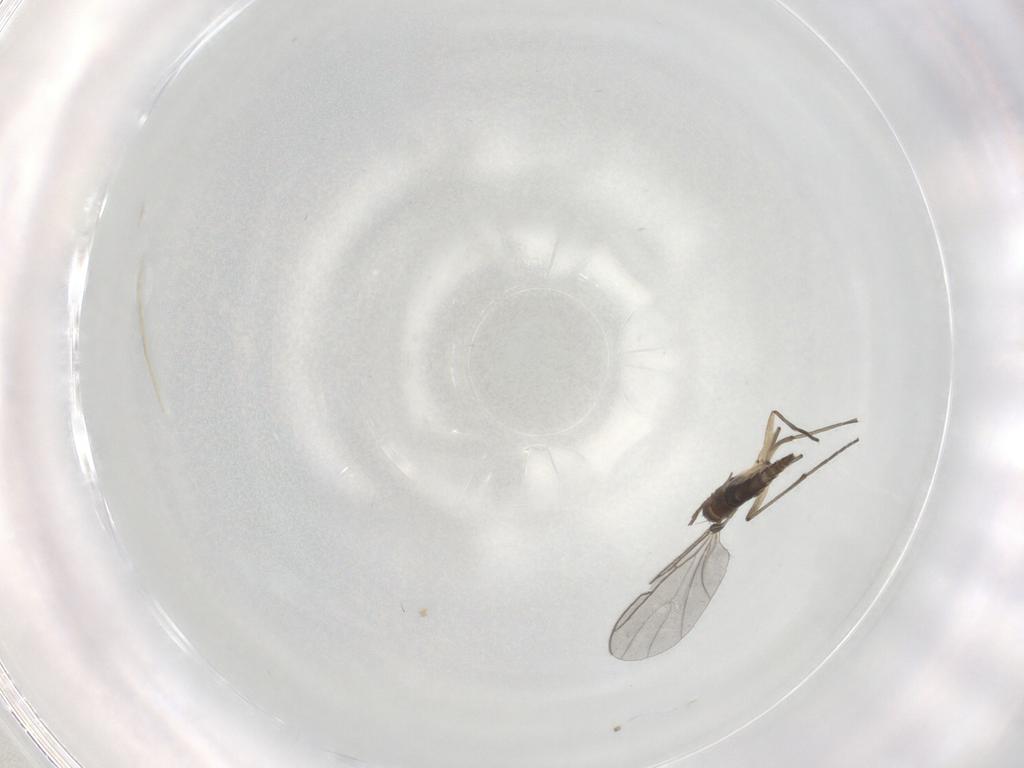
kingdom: Animalia
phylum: Arthropoda
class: Insecta
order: Diptera
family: Sciaridae
